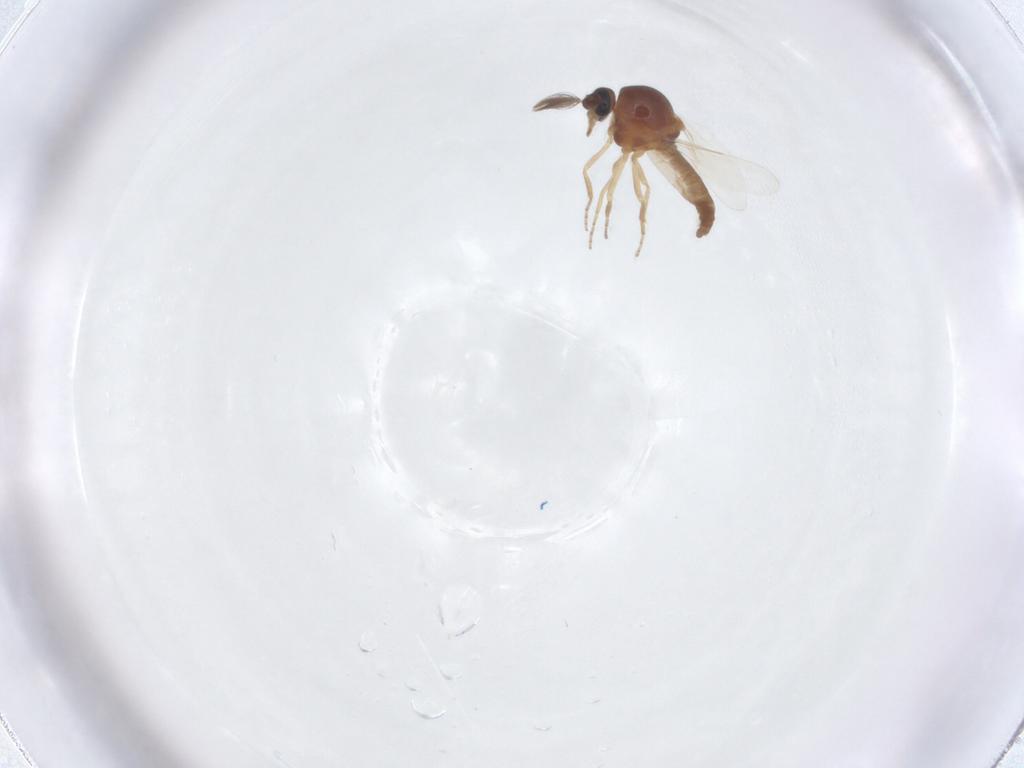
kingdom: Animalia
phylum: Arthropoda
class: Insecta
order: Diptera
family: Ceratopogonidae
